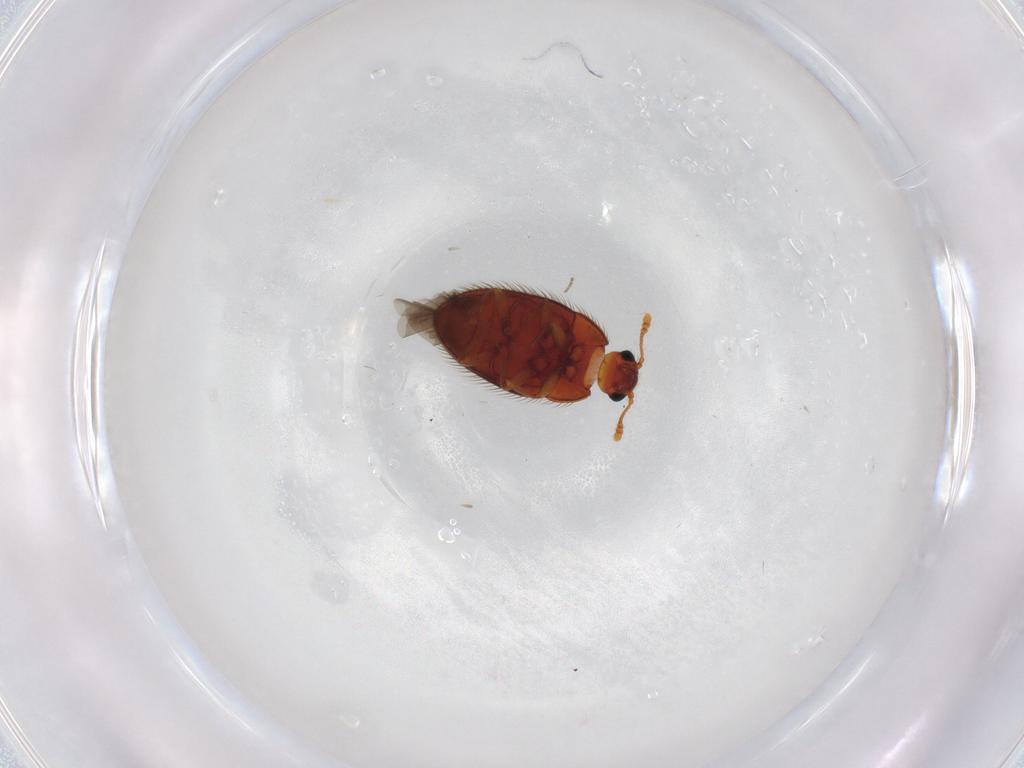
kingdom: Animalia
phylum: Arthropoda
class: Insecta
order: Coleoptera
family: Biphyllidae
